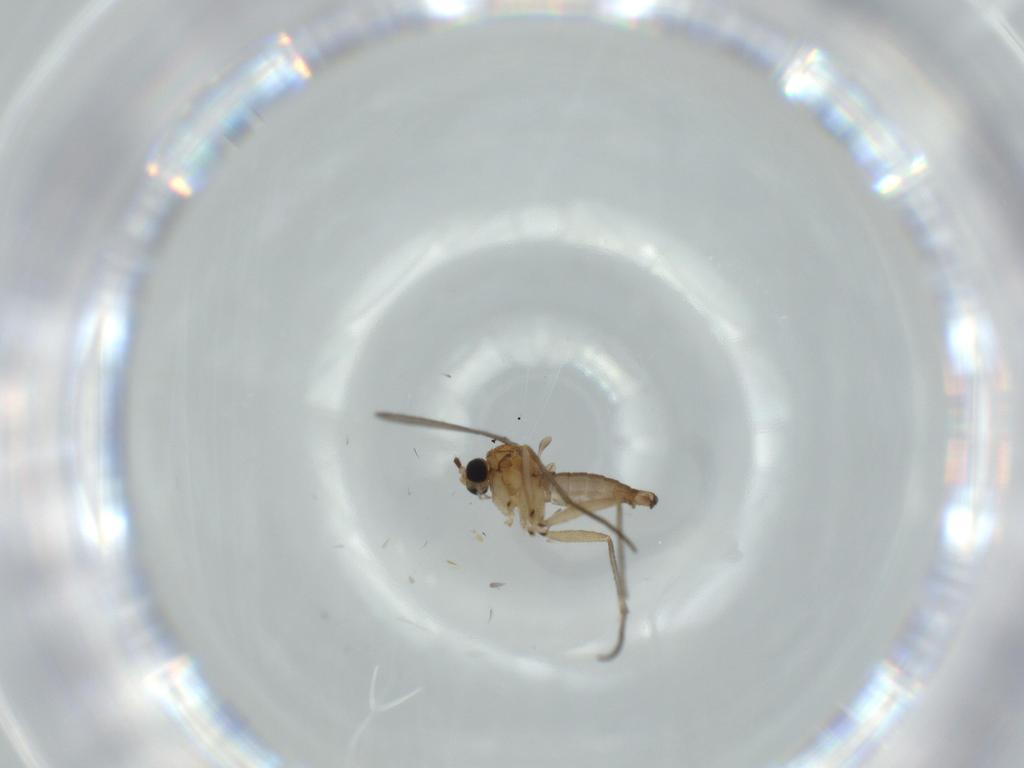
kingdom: Animalia
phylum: Arthropoda
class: Insecta
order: Diptera
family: Sciaridae
